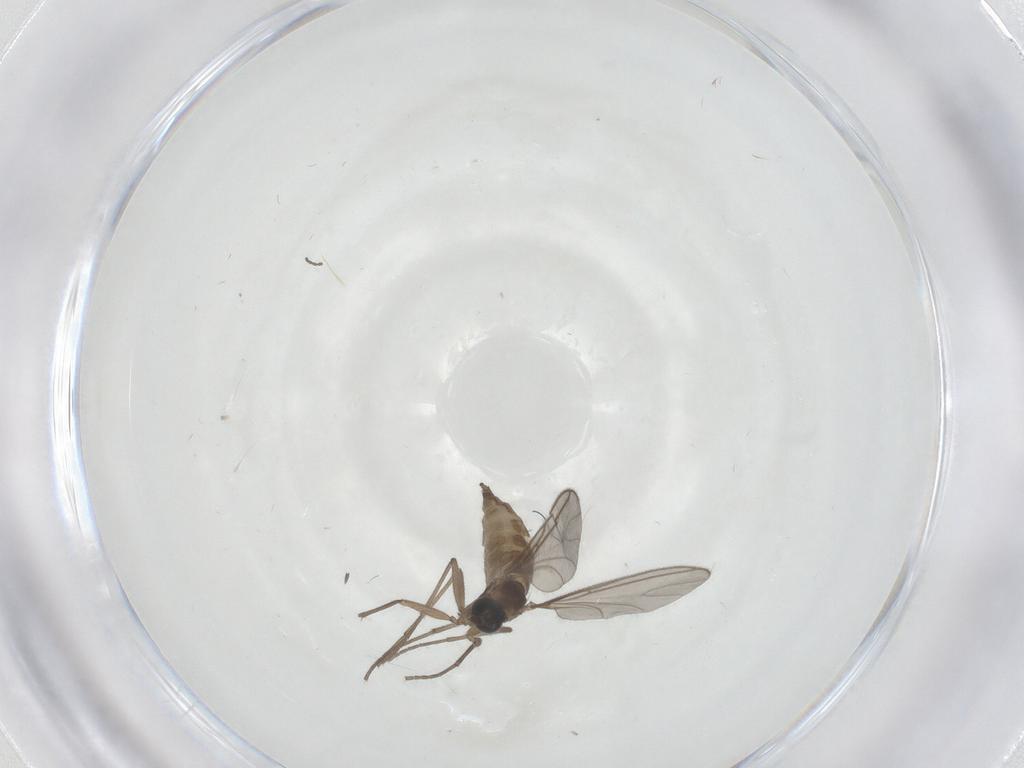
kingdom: Animalia
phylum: Arthropoda
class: Insecta
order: Diptera
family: Sciaridae
